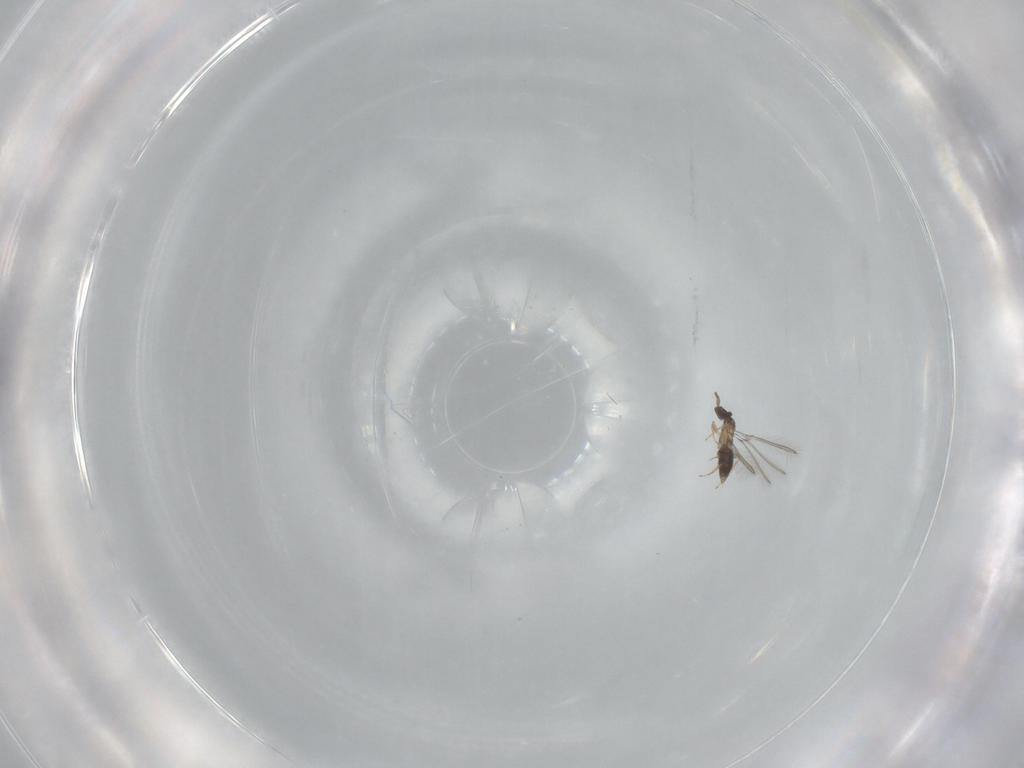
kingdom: Animalia
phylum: Arthropoda
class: Insecta
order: Hymenoptera
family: Mymaridae
